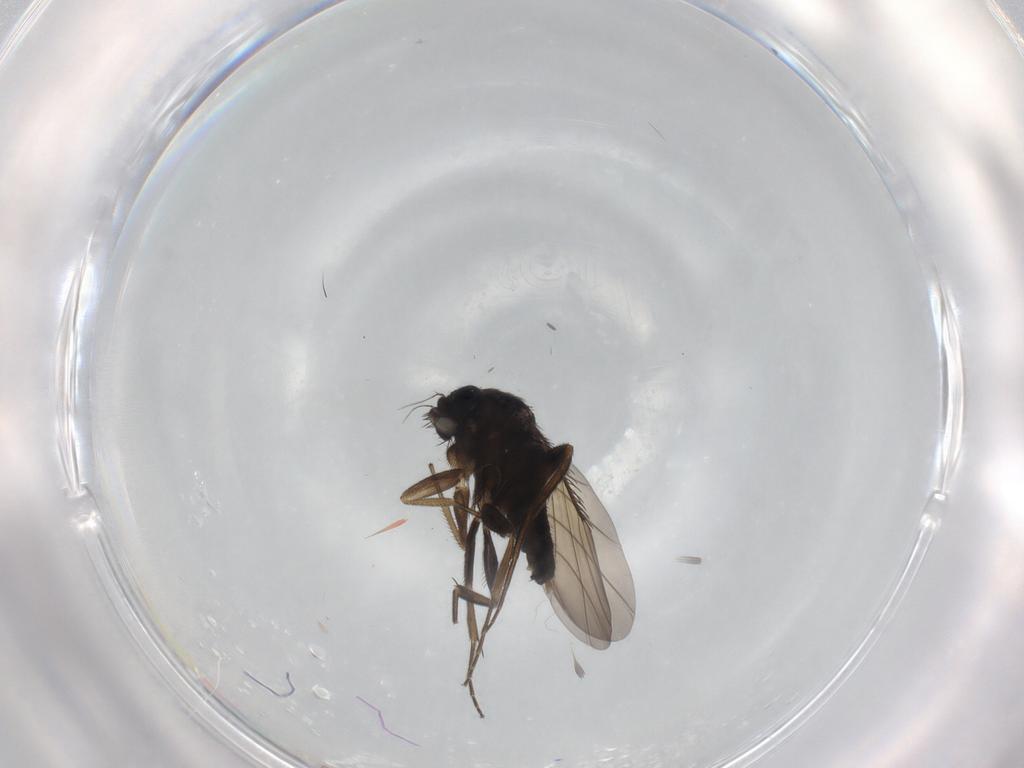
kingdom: Animalia
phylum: Arthropoda
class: Insecta
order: Diptera
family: Phoridae
